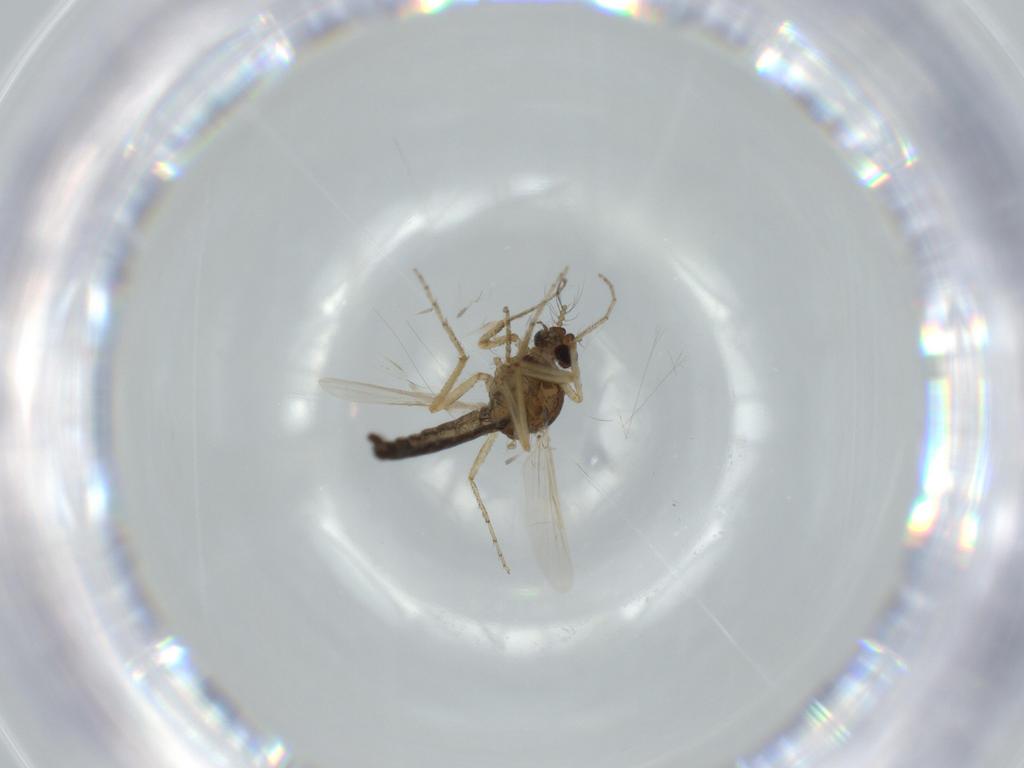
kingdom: Animalia
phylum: Arthropoda
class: Insecta
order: Diptera
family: Ceratopogonidae
